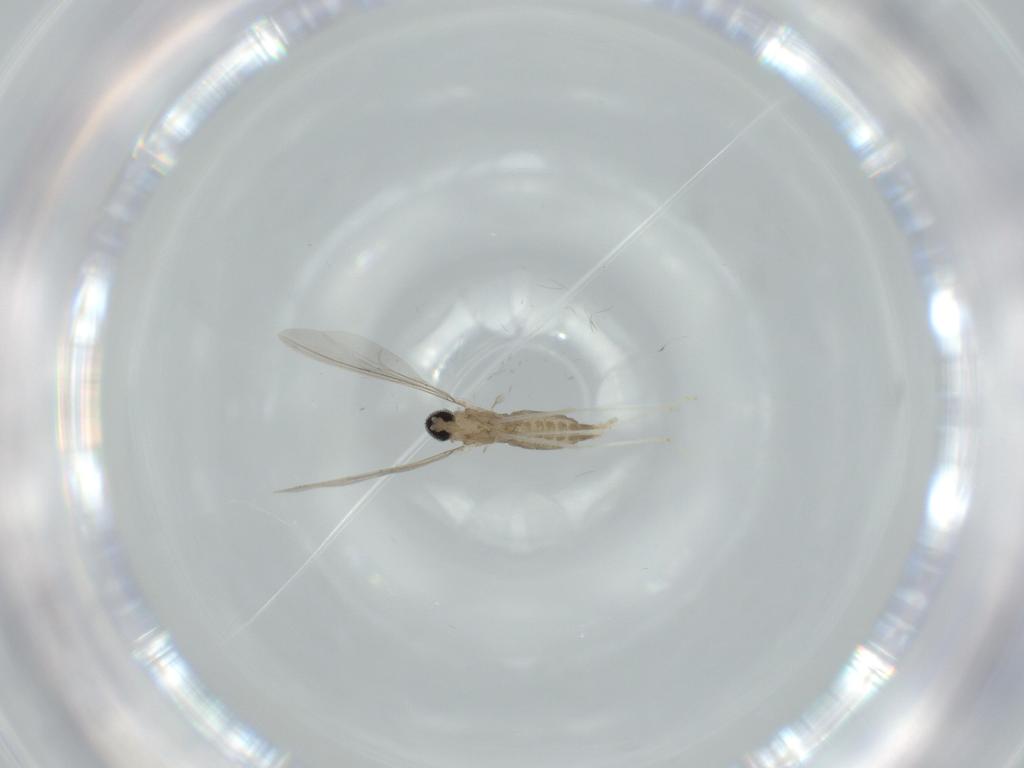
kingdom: Animalia
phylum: Arthropoda
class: Insecta
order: Diptera
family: Cecidomyiidae
